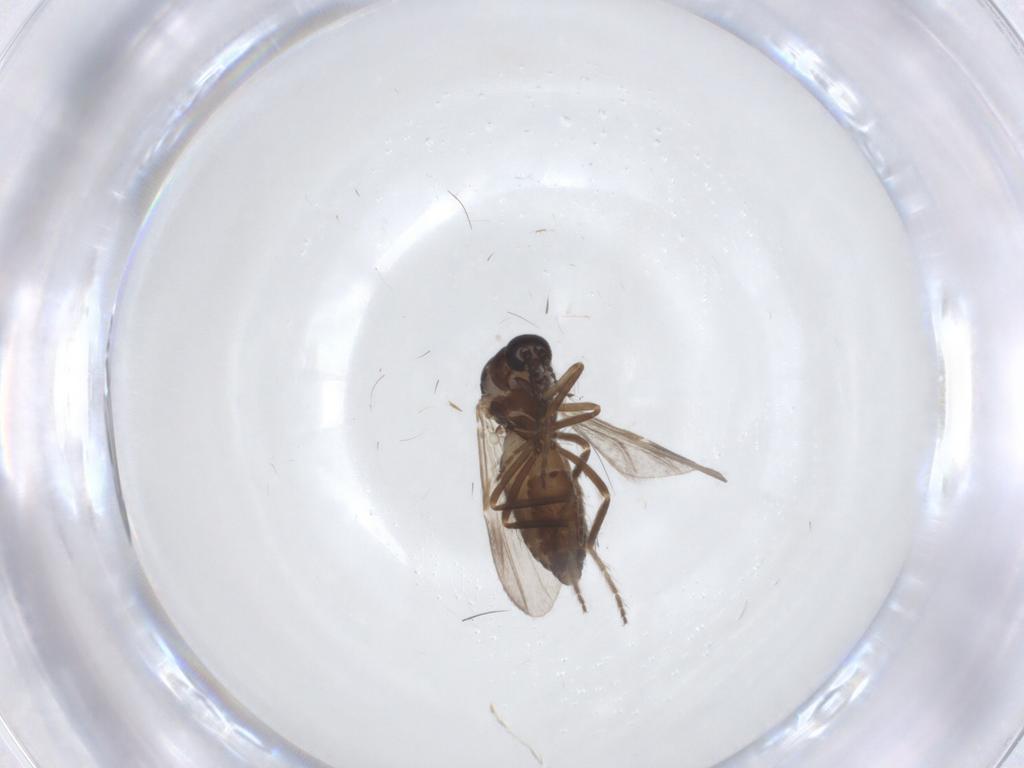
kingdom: Animalia
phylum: Arthropoda
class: Insecta
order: Diptera
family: Ceratopogonidae
